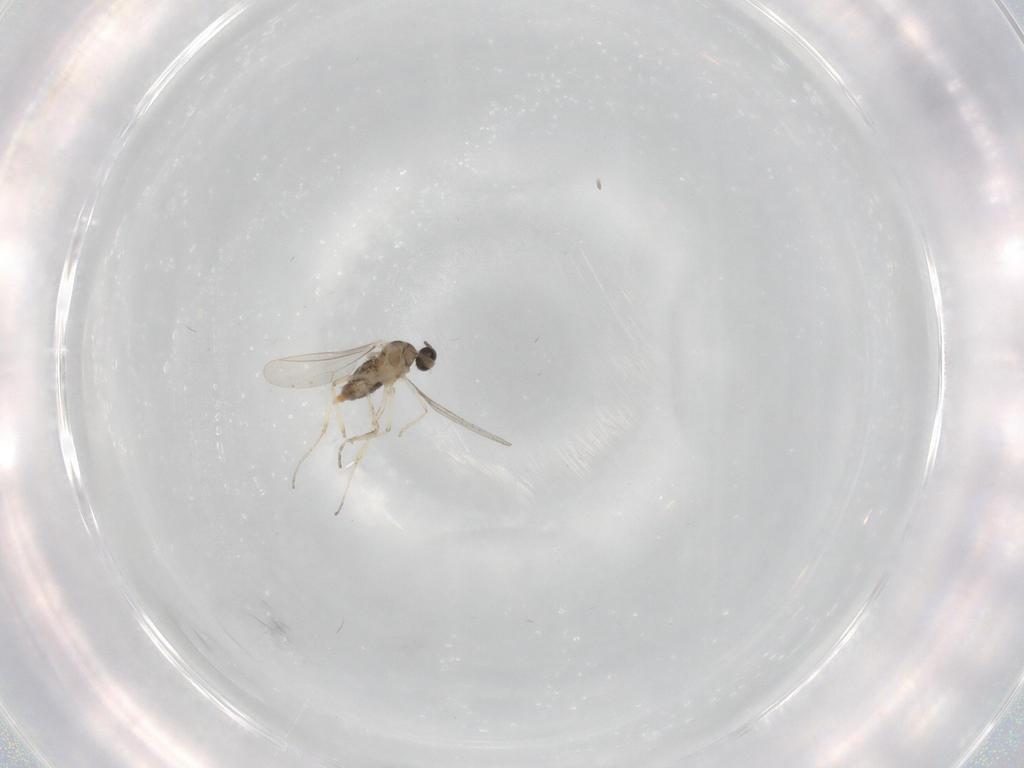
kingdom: Animalia
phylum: Arthropoda
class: Insecta
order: Diptera
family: Cecidomyiidae
